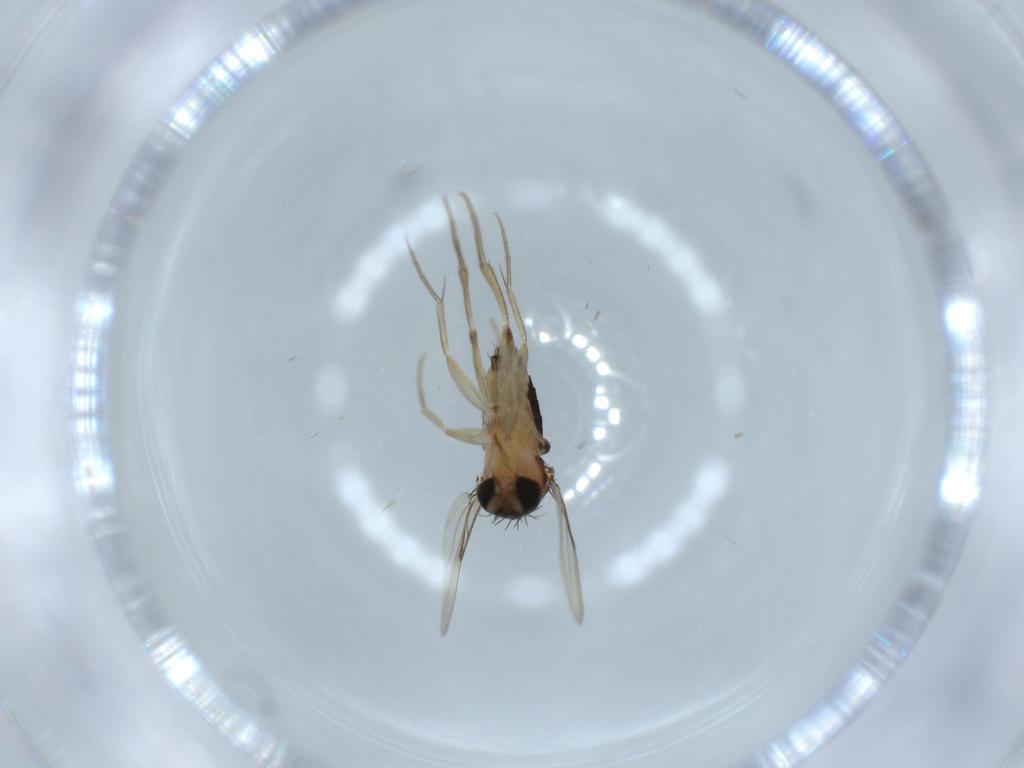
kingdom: Animalia
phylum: Arthropoda
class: Insecta
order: Diptera
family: Phoridae
